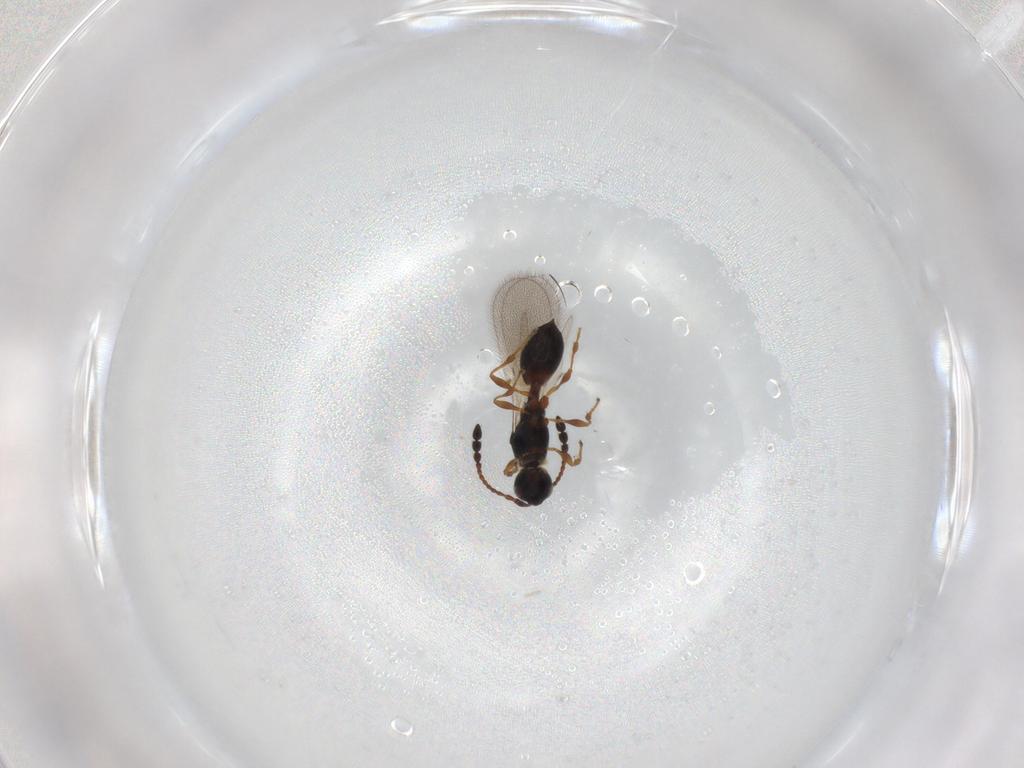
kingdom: Animalia
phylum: Arthropoda
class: Insecta
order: Hymenoptera
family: Diapriidae
